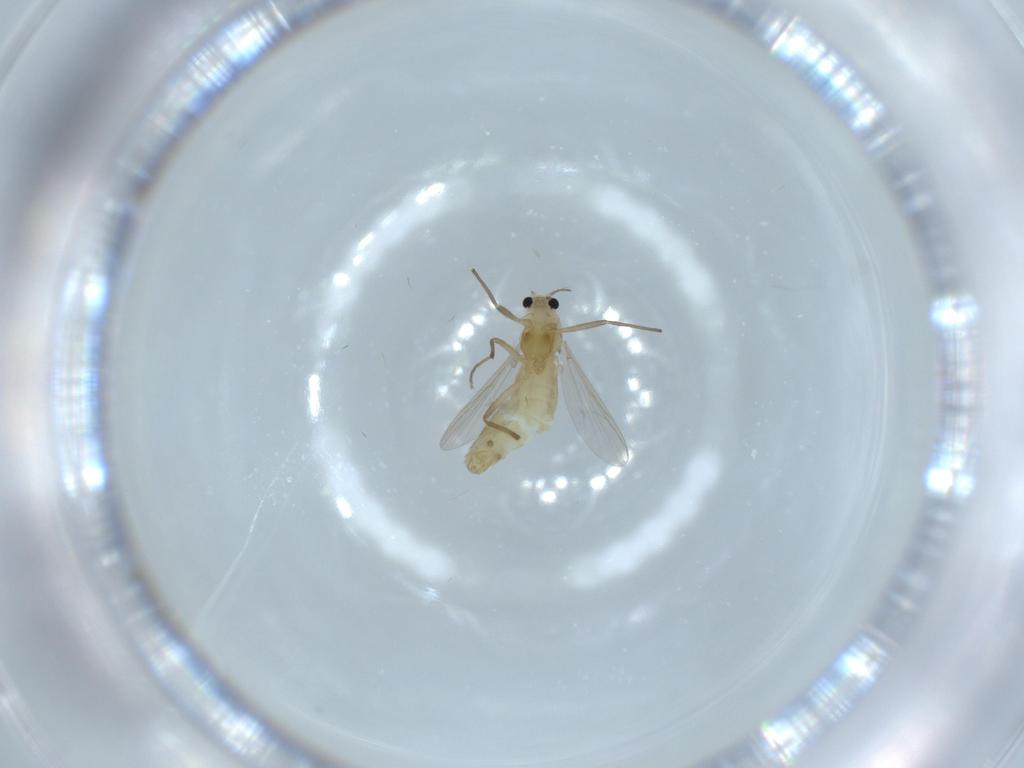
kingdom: Animalia
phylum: Arthropoda
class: Insecta
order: Diptera
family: Chironomidae
